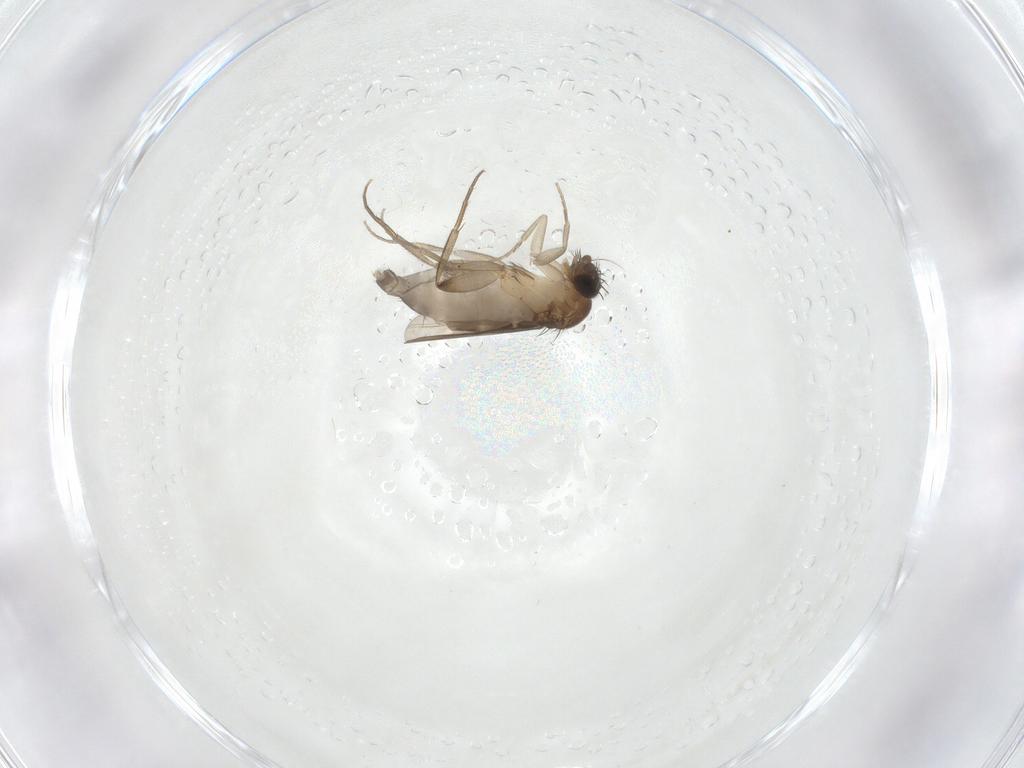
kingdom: Animalia
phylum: Arthropoda
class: Insecta
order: Diptera
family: Phoridae
